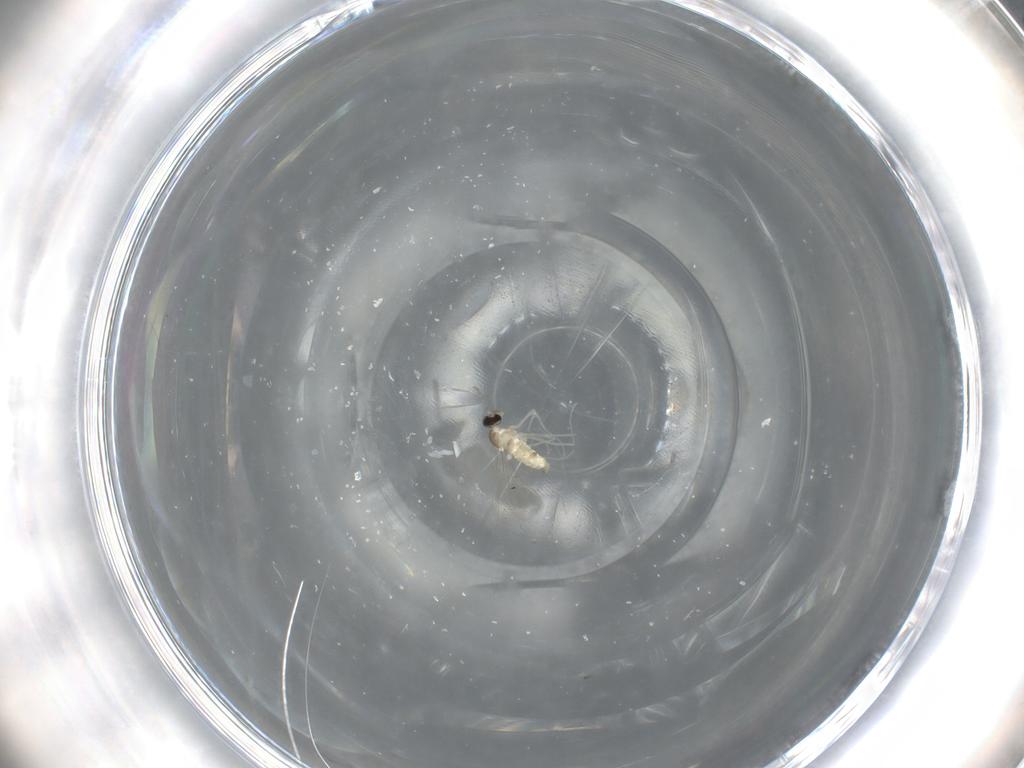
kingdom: Animalia
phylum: Arthropoda
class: Insecta
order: Diptera
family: Cecidomyiidae
